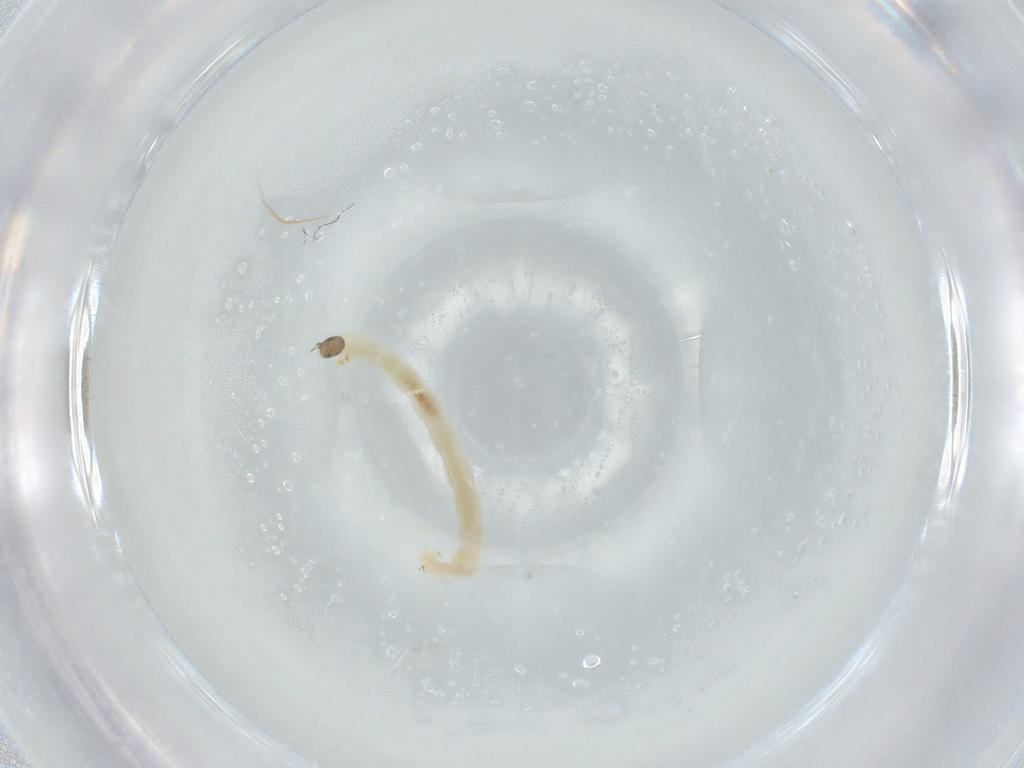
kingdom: Animalia
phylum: Arthropoda
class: Insecta
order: Diptera
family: Chironomidae
